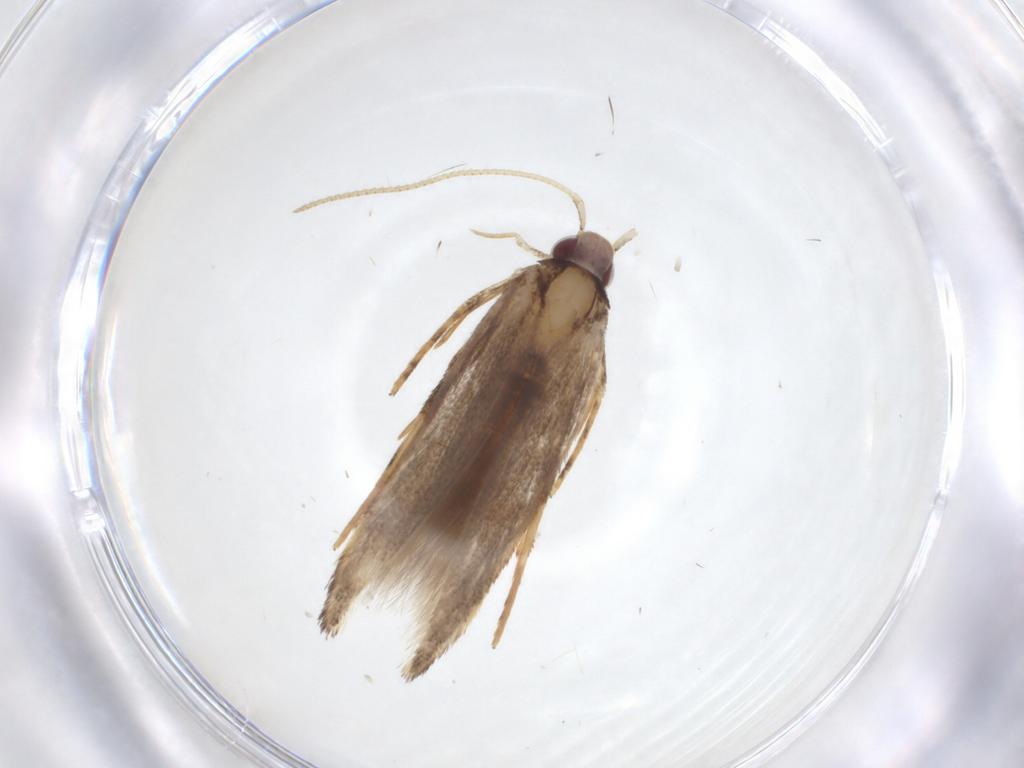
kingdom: Animalia
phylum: Arthropoda
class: Insecta
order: Lepidoptera
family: Cosmopterigidae
